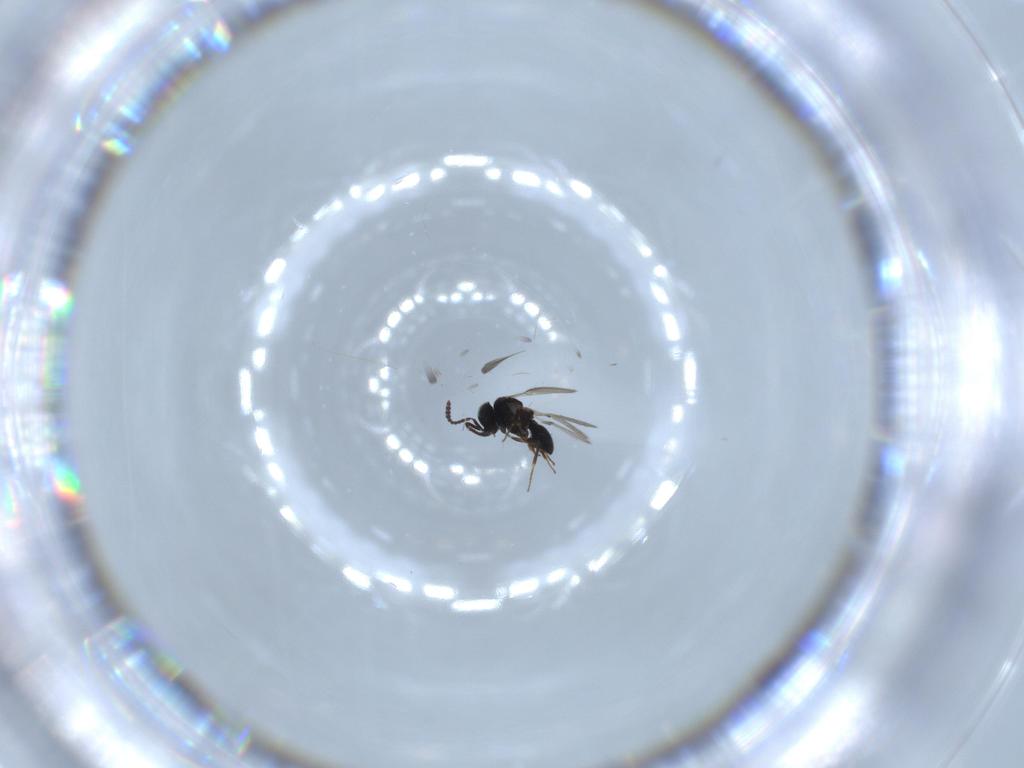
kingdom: Animalia
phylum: Arthropoda
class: Insecta
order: Hymenoptera
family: Scelionidae
